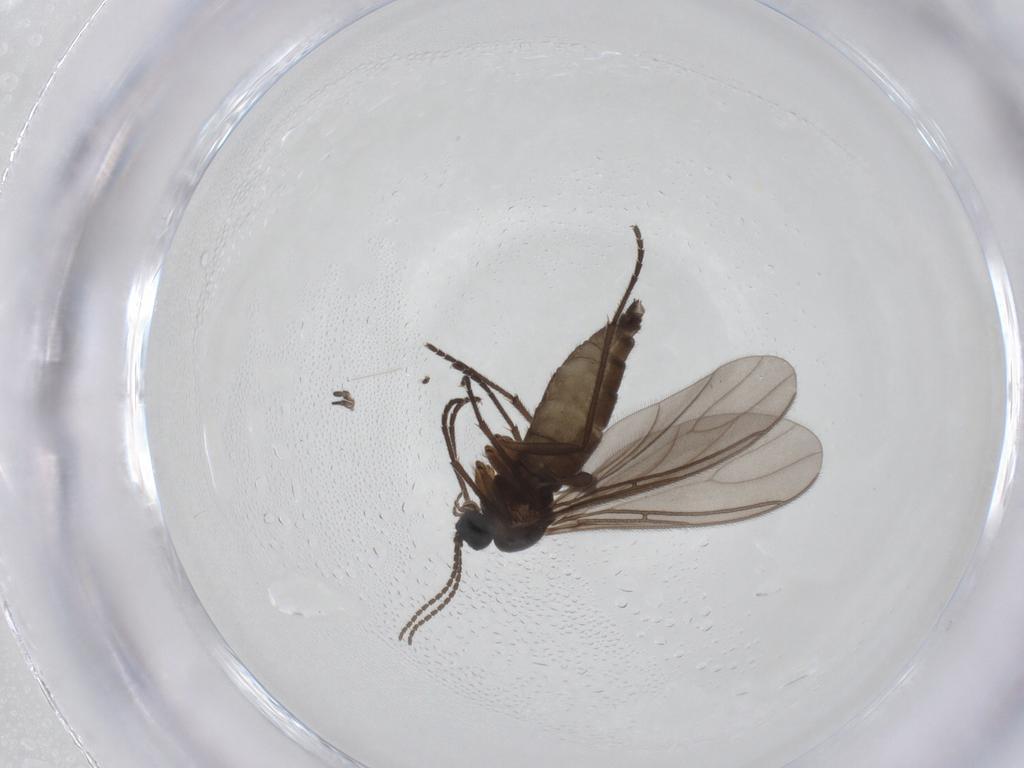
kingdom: Animalia
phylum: Arthropoda
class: Insecta
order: Diptera
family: Sciaridae
